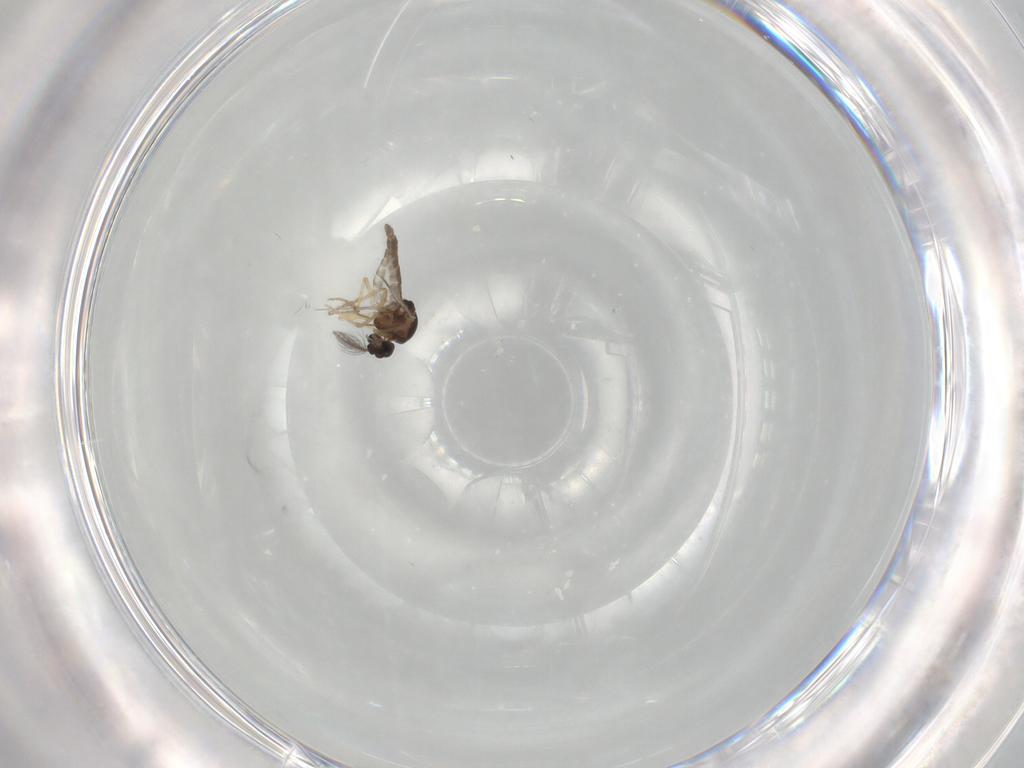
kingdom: Animalia
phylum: Arthropoda
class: Insecta
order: Diptera
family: Ceratopogonidae
